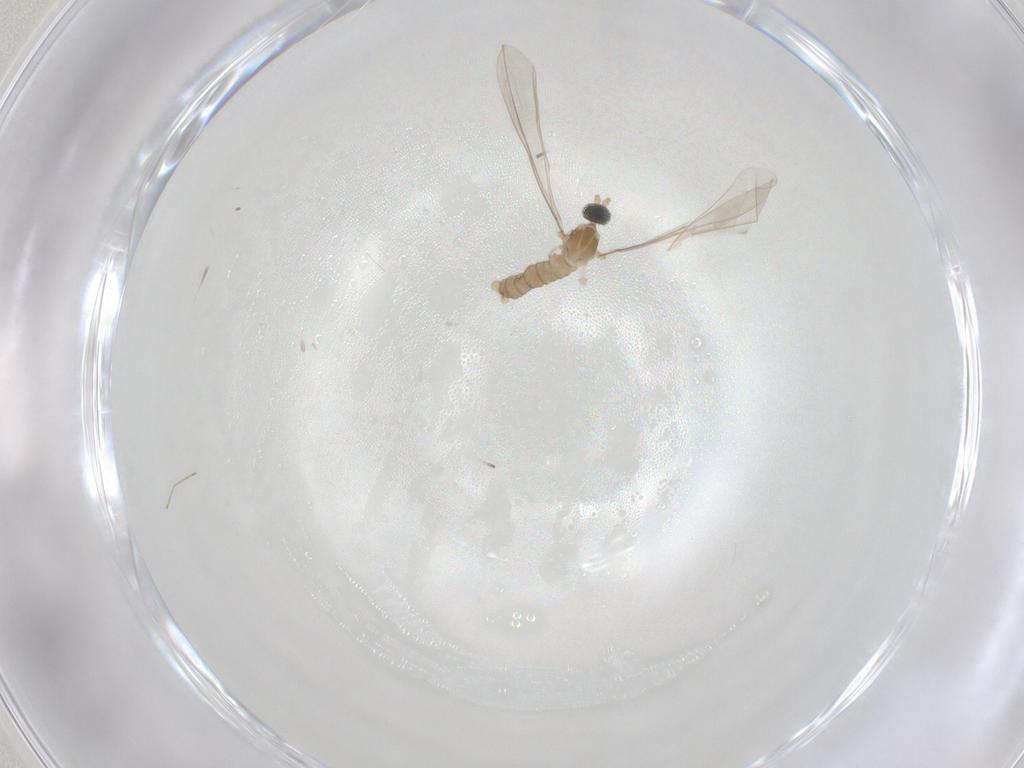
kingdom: Animalia
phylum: Arthropoda
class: Insecta
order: Diptera
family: Cecidomyiidae
